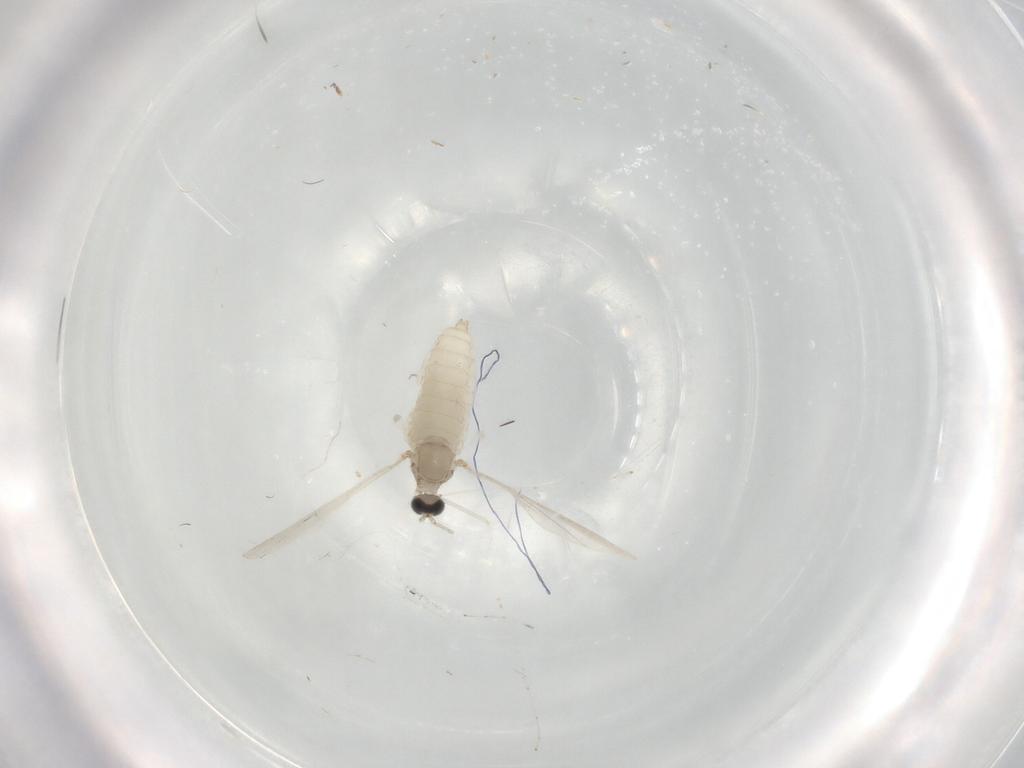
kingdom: Animalia
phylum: Arthropoda
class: Insecta
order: Diptera
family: Cecidomyiidae
